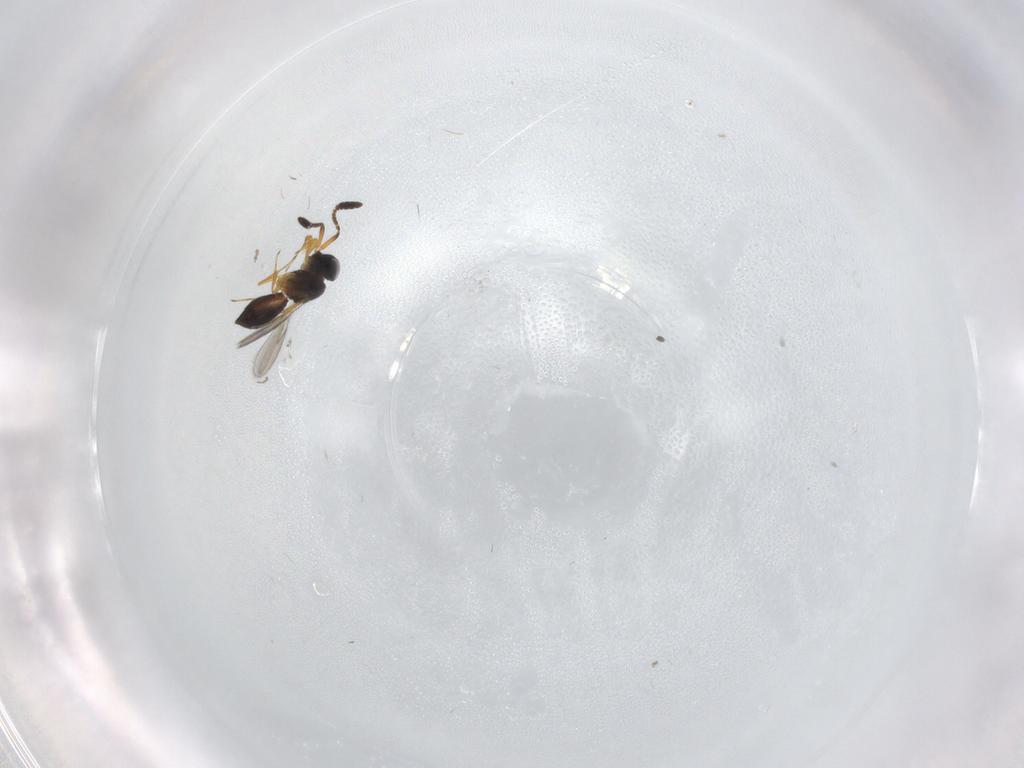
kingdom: Animalia
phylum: Arthropoda
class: Insecta
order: Hymenoptera
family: Scelionidae
